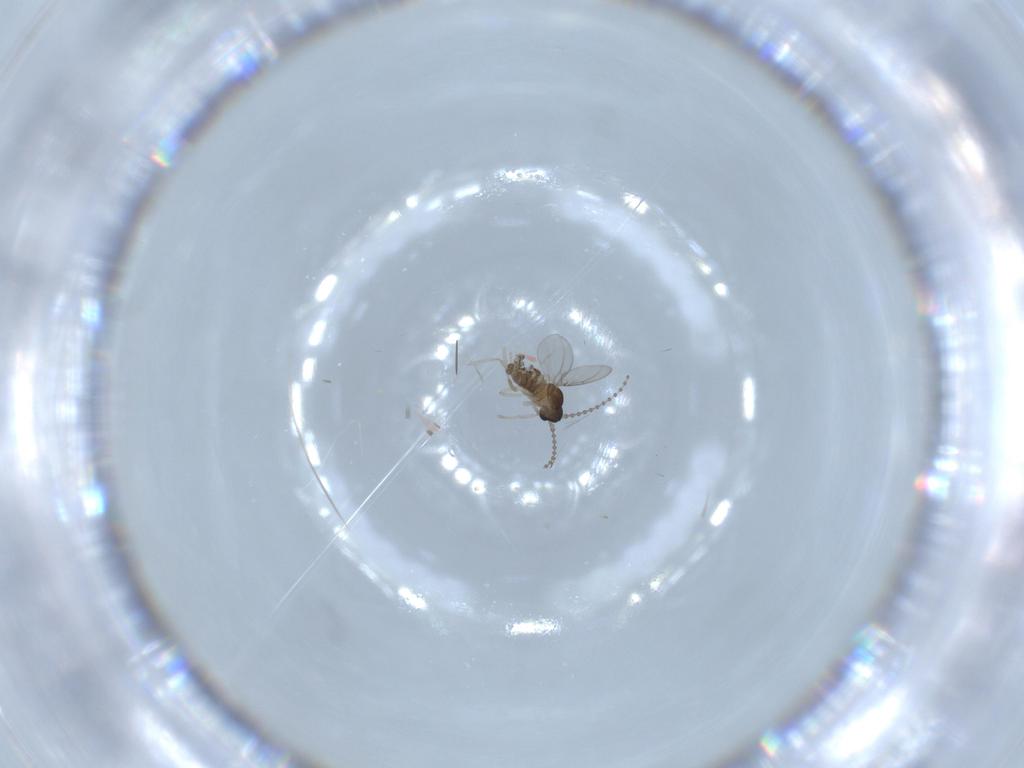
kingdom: Animalia
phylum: Arthropoda
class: Insecta
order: Diptera
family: Cecidomyiidae
